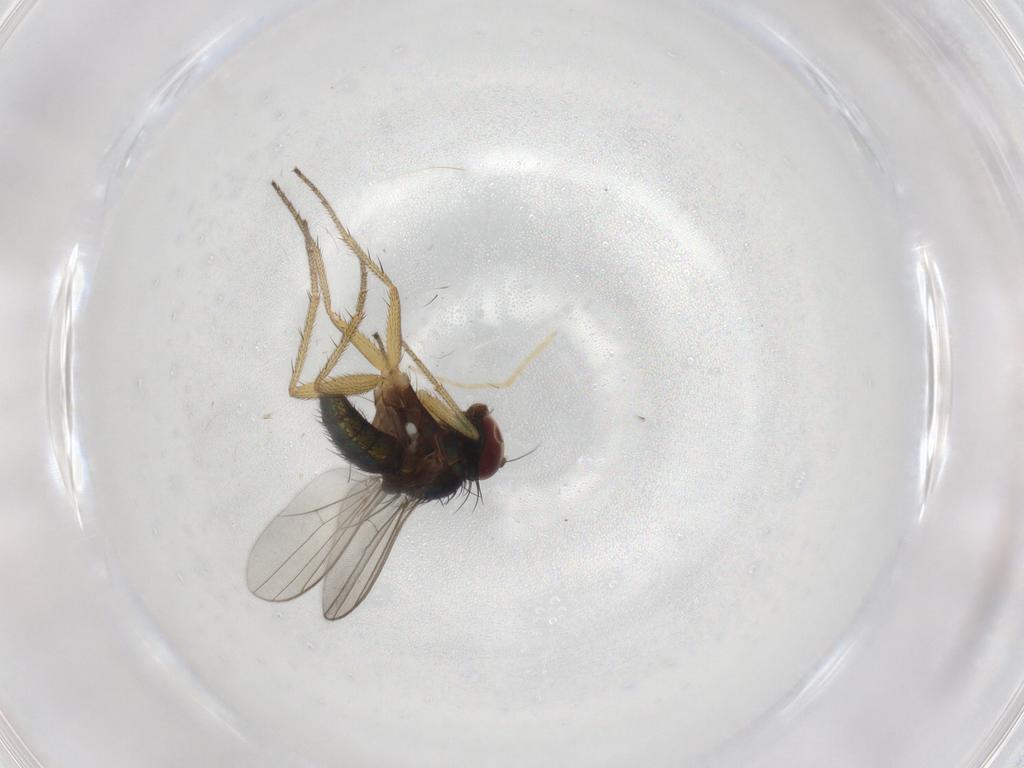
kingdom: Animalia
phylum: Arthropoda
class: Insecta
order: Diptera
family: Dolichopodidae
